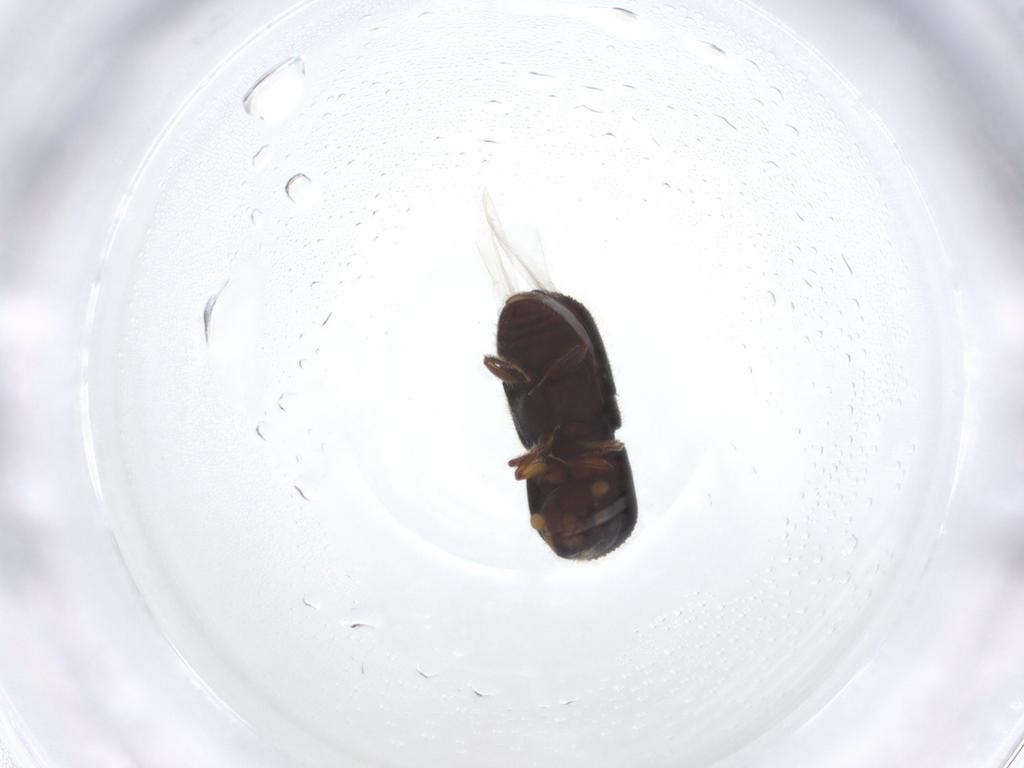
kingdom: Animalia
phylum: Arthropoda
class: Insecta
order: Coleoptera
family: Curculionidae
